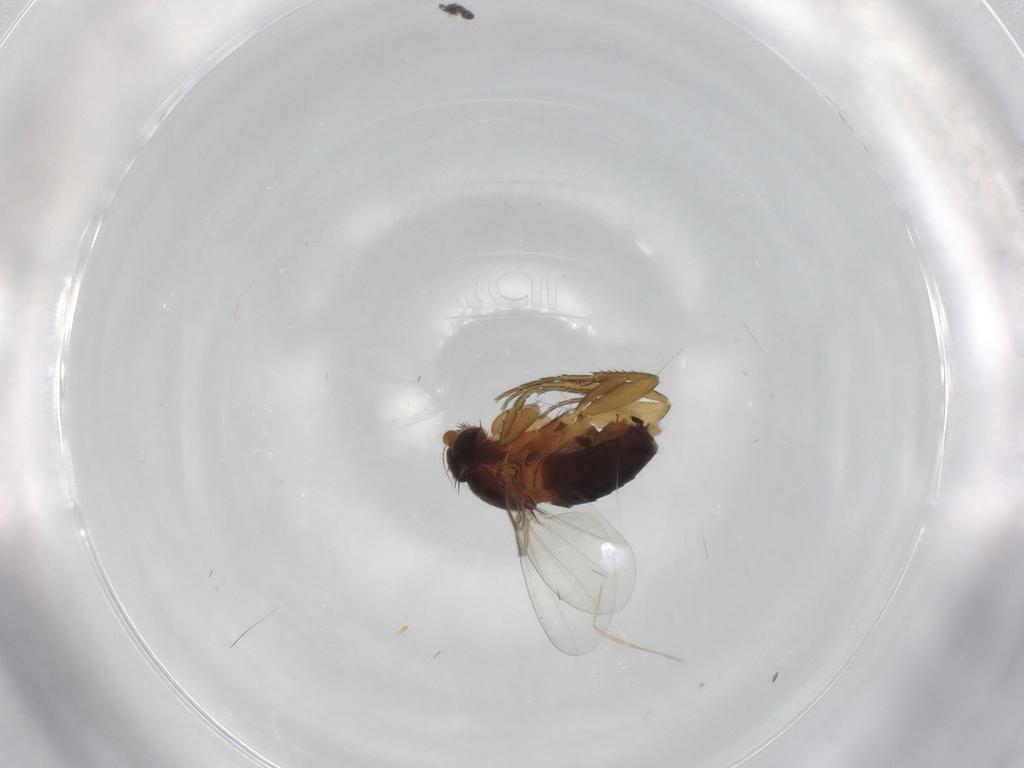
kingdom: Animalia
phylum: Arthropoda
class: Insecta
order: Diptera
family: Phoridae
